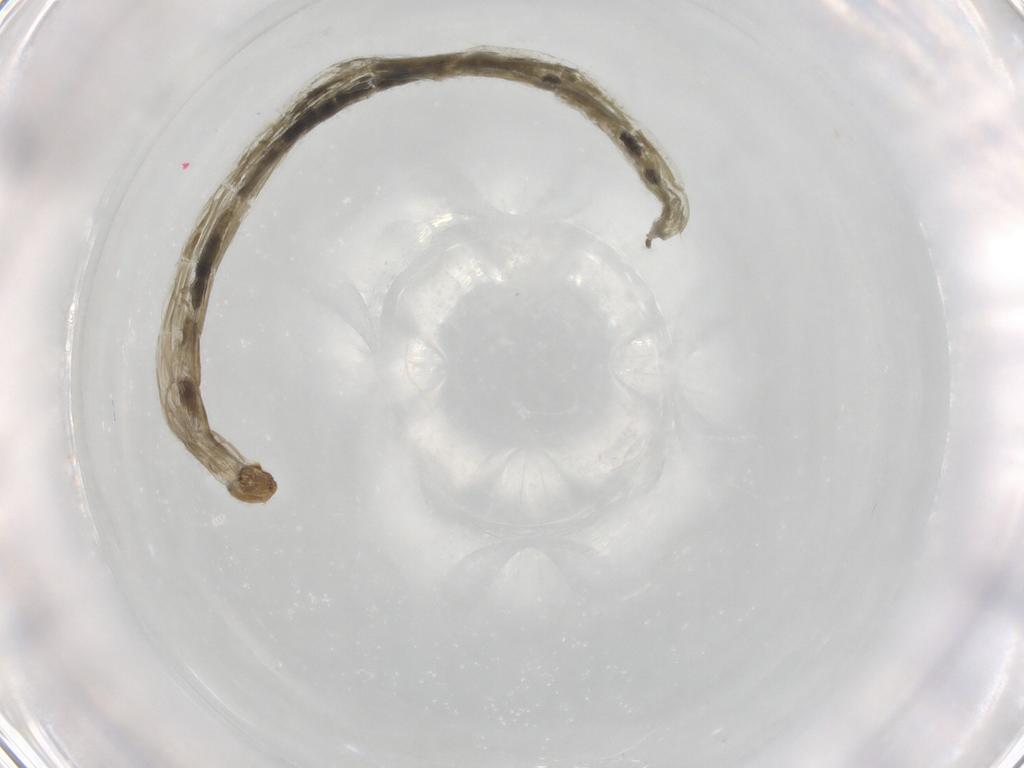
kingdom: Animalia
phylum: Arthropoda
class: Insecta
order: Diptera
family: Chironomidae
